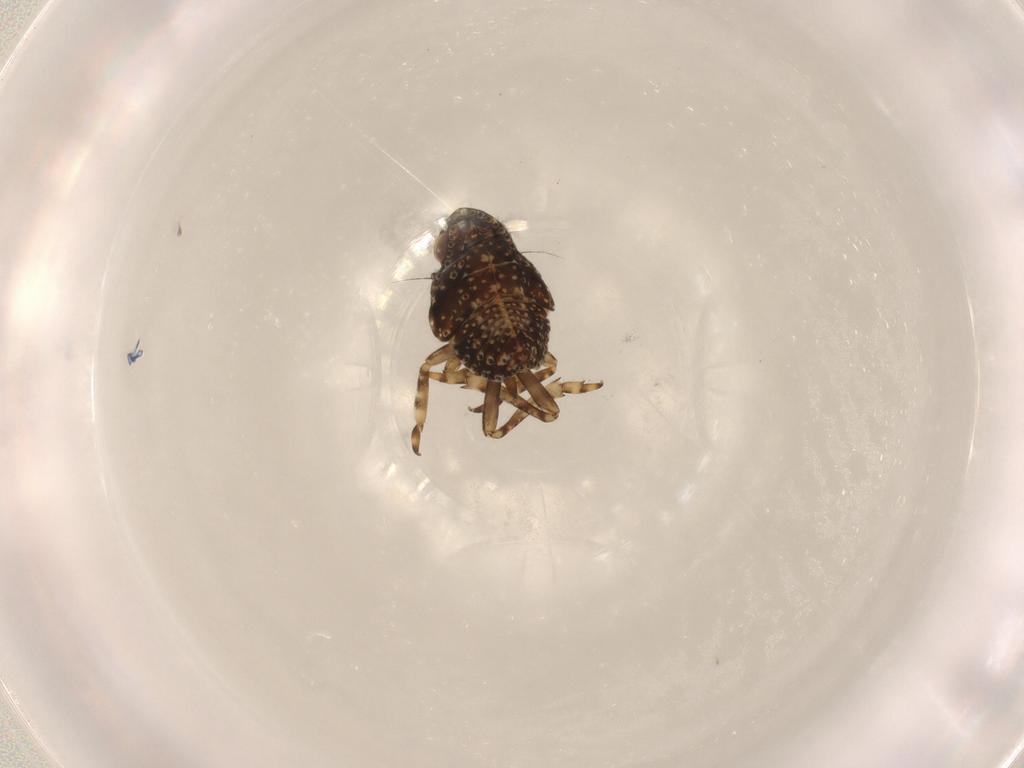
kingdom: Animalia
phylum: Arthropoda
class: Insecta
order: Hemiptera
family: Nogodinidae
